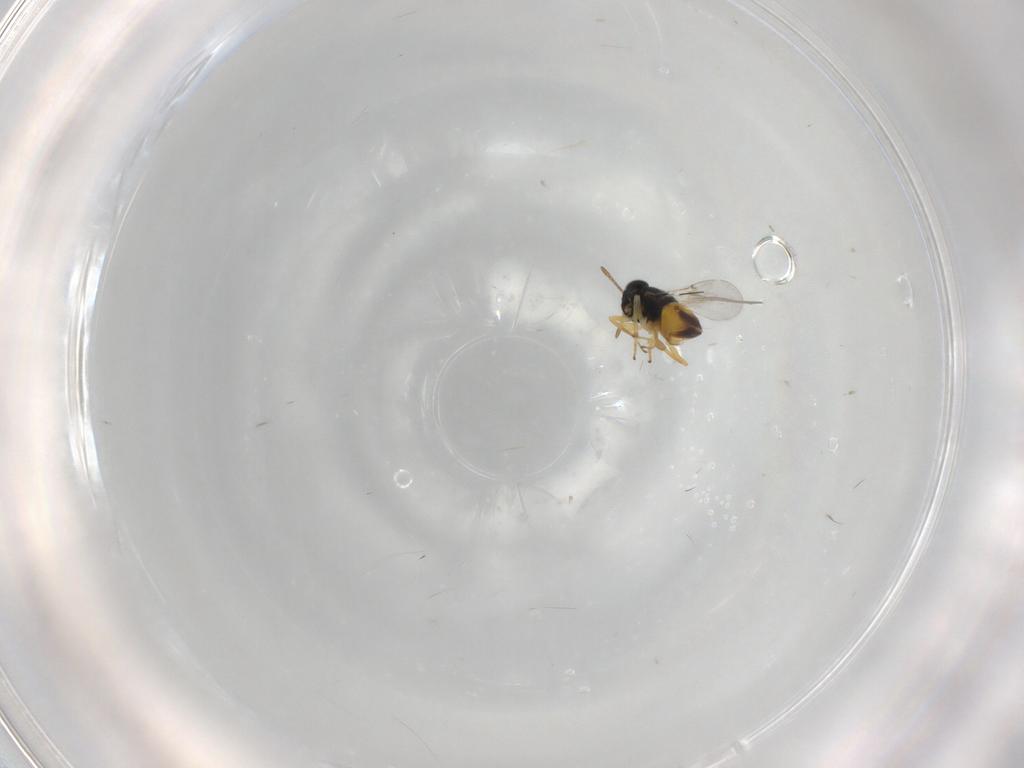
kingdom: Animalia
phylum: Arthropoda
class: Insecta
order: Hymenoptera
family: Encyrtidae
